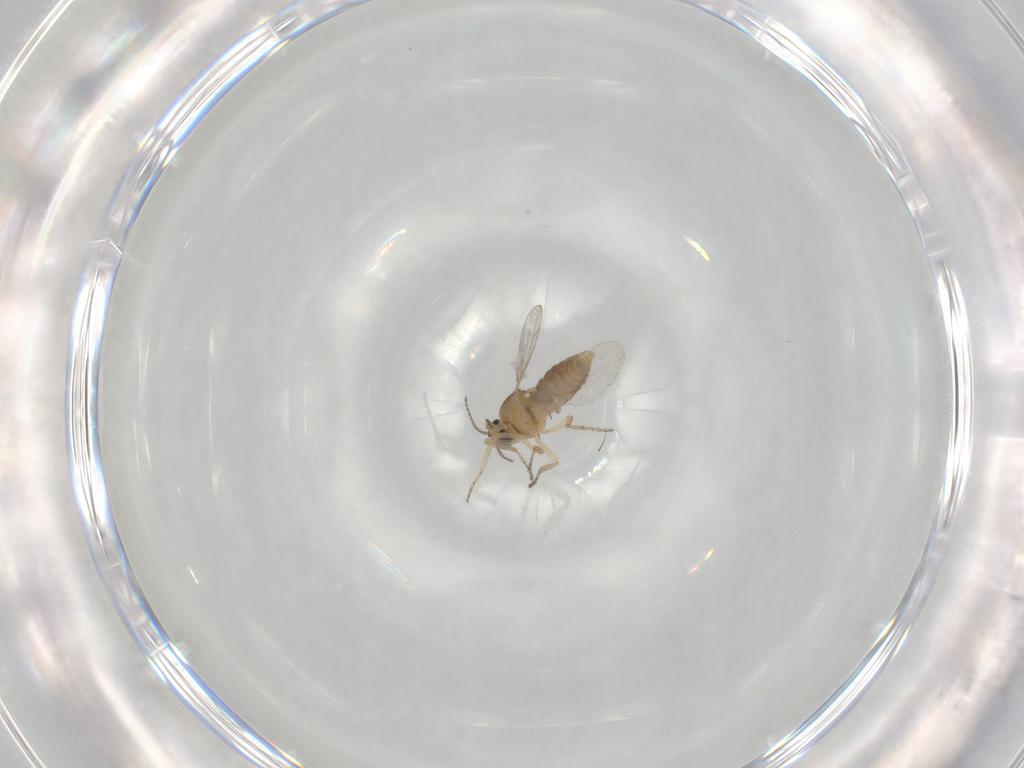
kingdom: Animalia
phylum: Arthropoda
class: Insecta
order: Diptera
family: Ceratopogonidae
